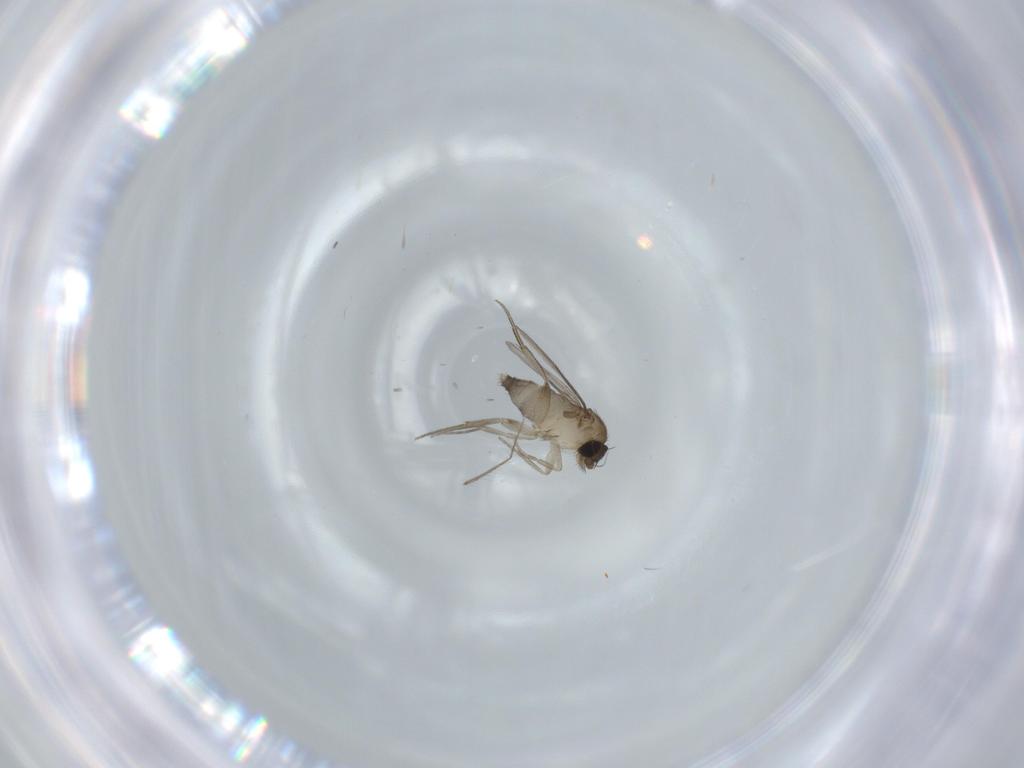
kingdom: Animalia
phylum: Arthropoda
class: Insecta
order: Diptera
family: Phoridae
